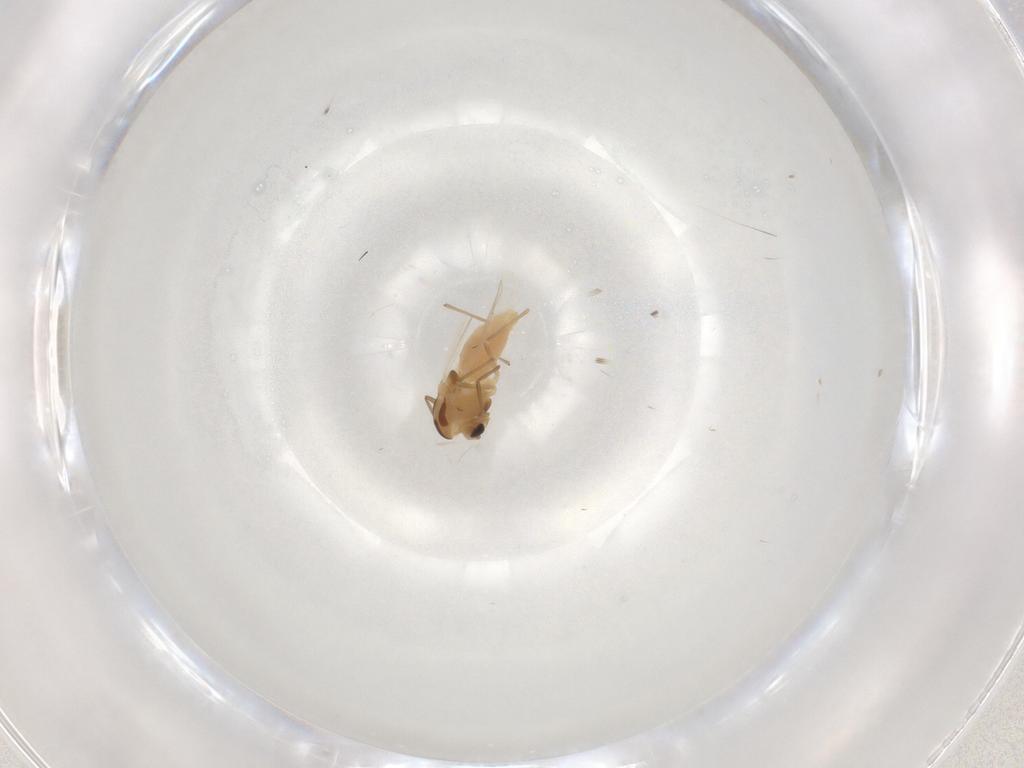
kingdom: Animalia
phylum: Arthropoda
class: Insecta
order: Diptera
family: Chironomidae
